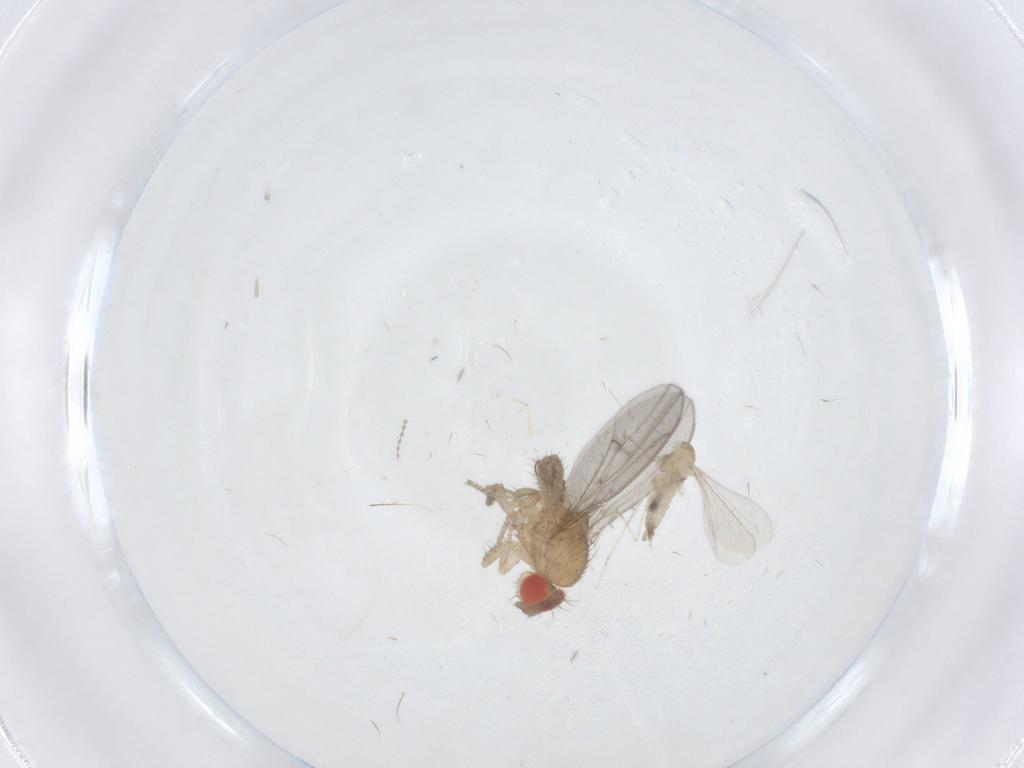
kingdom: Animalia
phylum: Arthropoda
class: Insecta
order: Diptera
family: Cecidomyiidae
